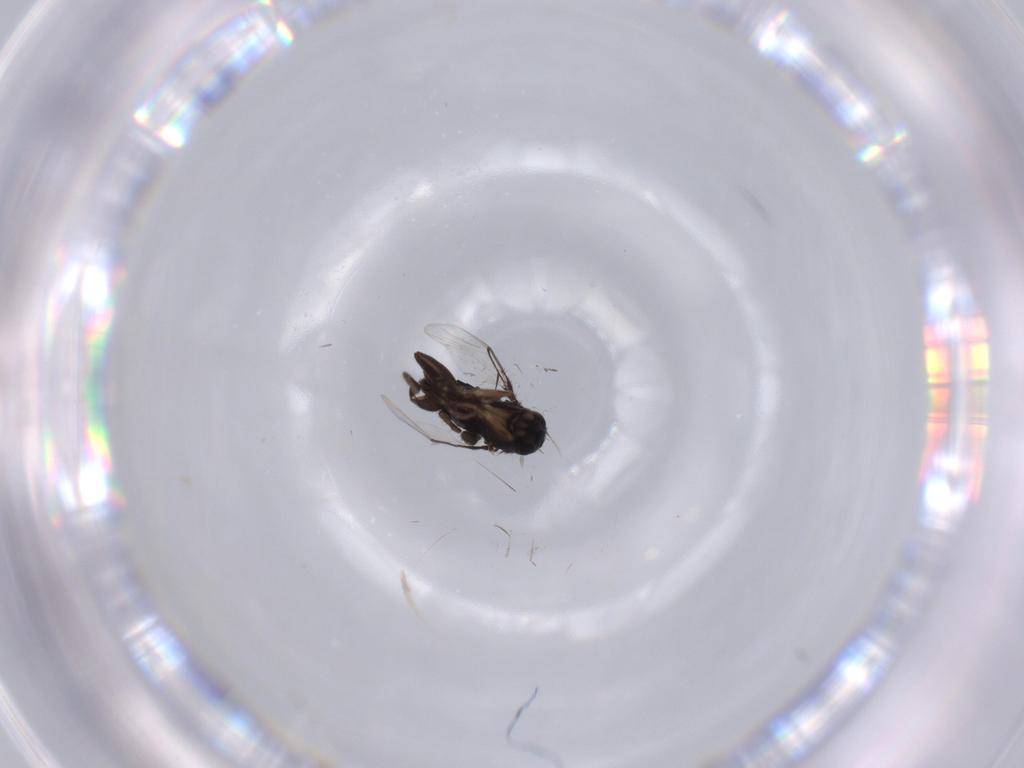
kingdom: Animalia
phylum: Arthropoda
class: Insecta
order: Diptera
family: Phoridae
